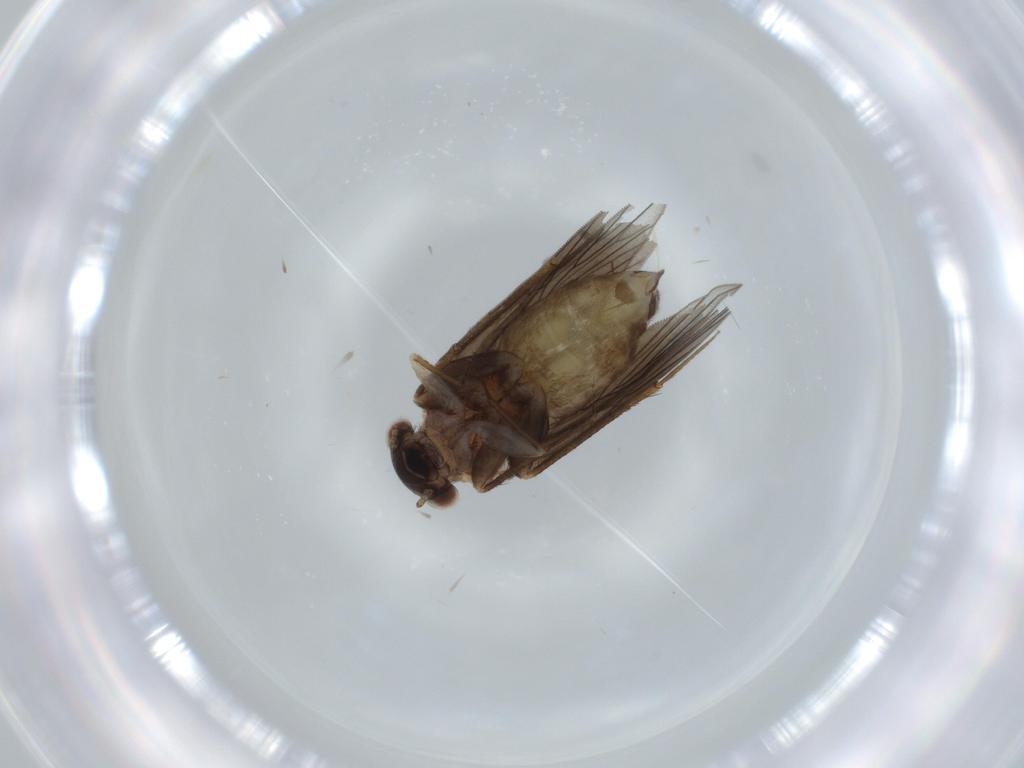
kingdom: Animalia
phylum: Arthropoda
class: Insecta
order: Psocodea
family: Lepidopsocidae
